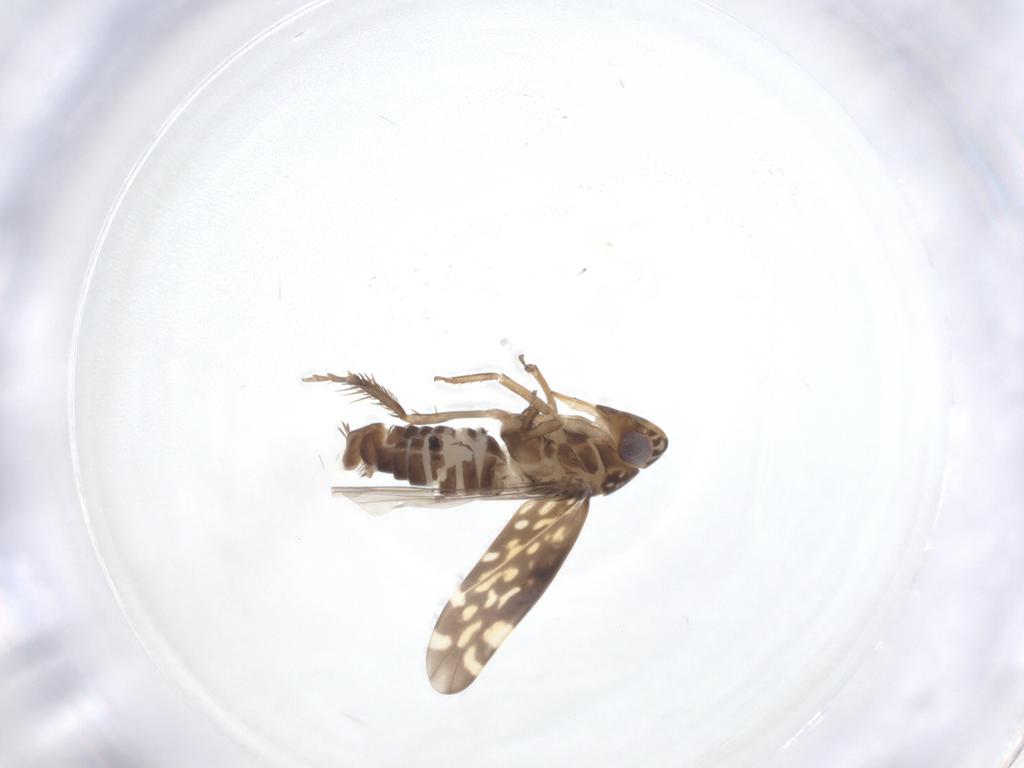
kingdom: Animalia
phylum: Arthropoda
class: Insecta
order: Hemiptera
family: Cicadellidae
